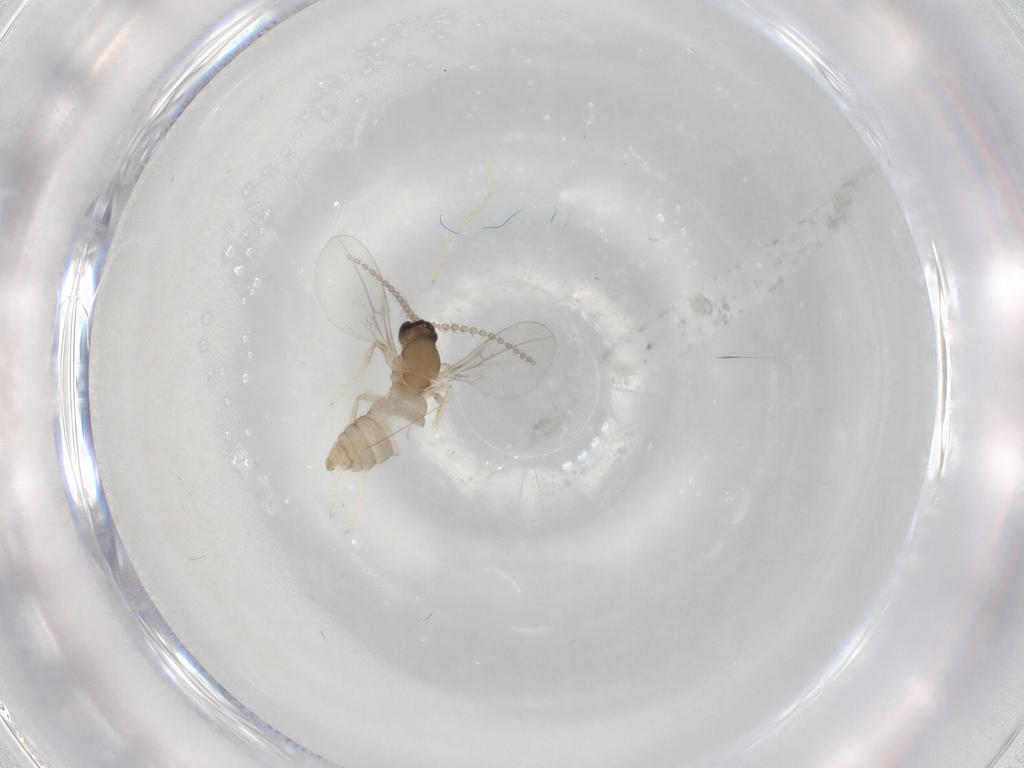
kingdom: Animalia
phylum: Arthropoda
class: Insecta
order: Diptera
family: Cecidomyiidae
